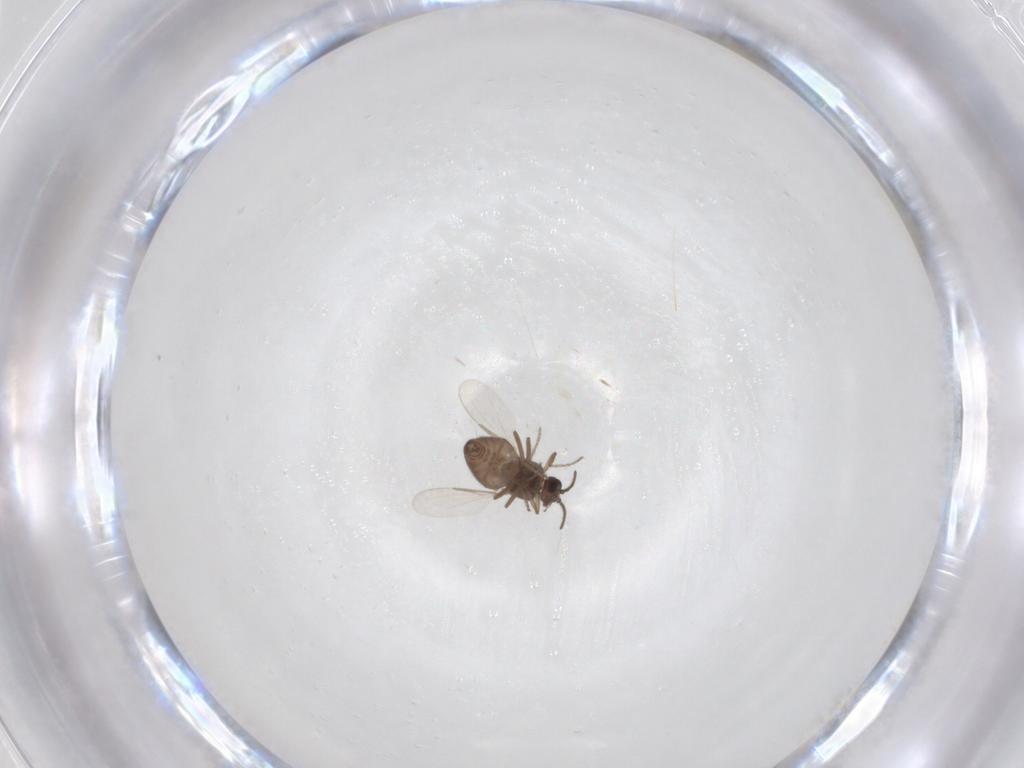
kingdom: Animalia
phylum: Arthropoda
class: Insecta
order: Diptera
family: Ceratopogonidae
